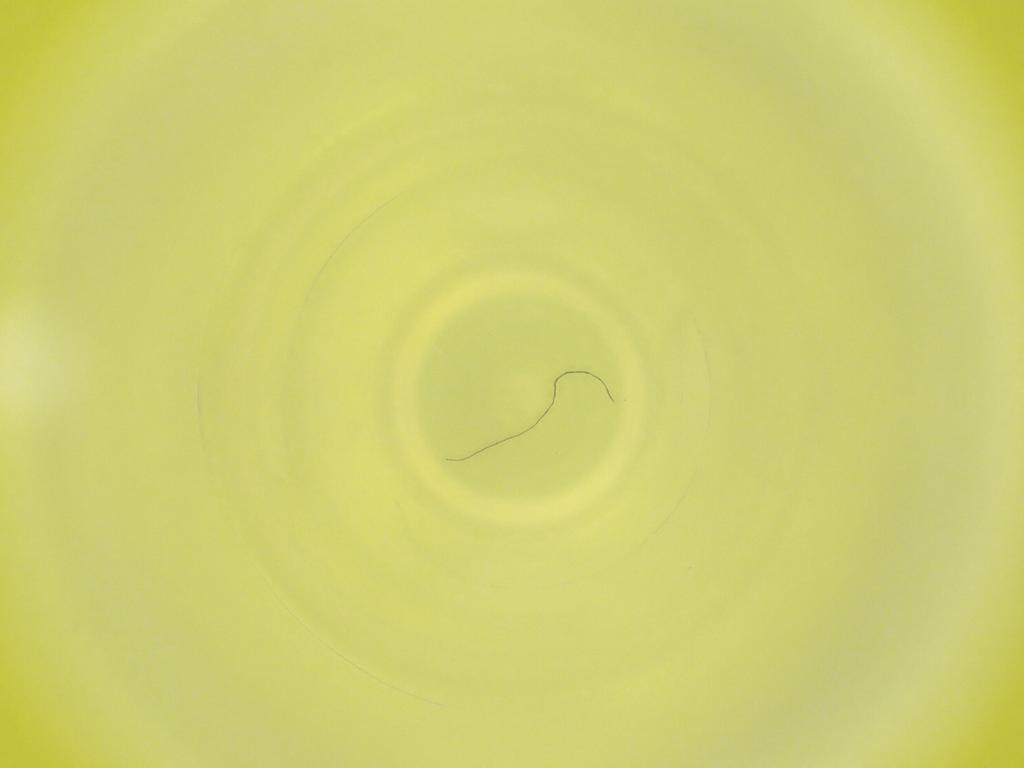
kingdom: Animalia
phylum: Arthropoda
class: Insecta
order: Diptera
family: Cecidomyiidae
